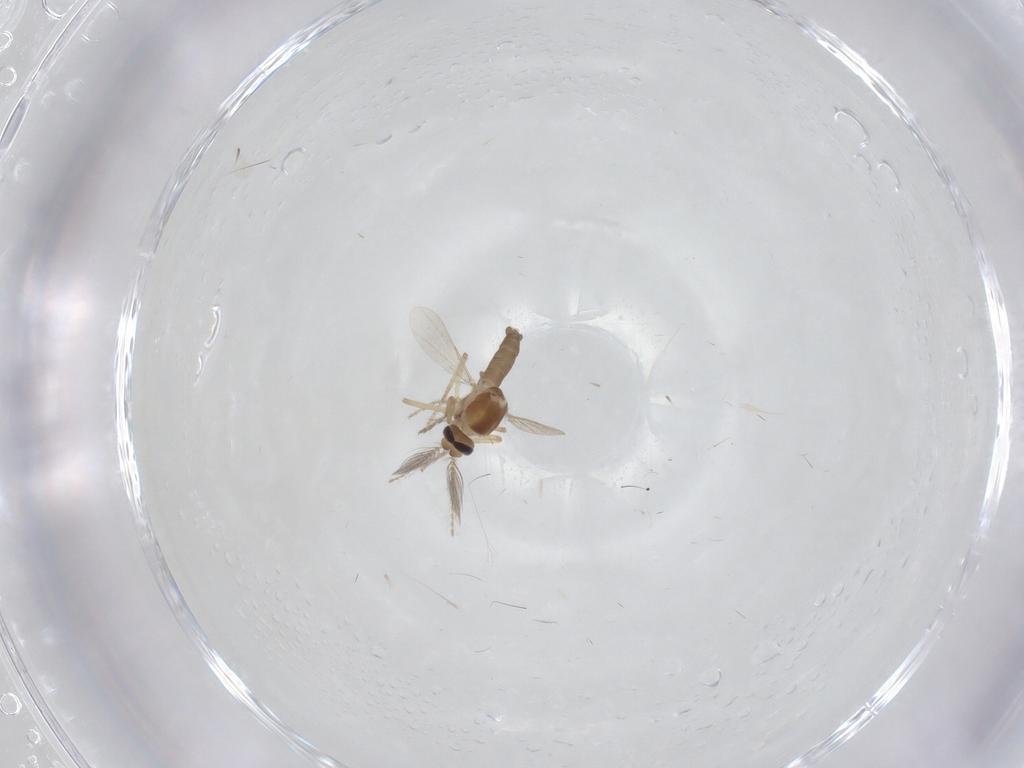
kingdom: Animalia
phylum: Arthropoda
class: Insecta
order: Diptera
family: Ceratopogonidae
